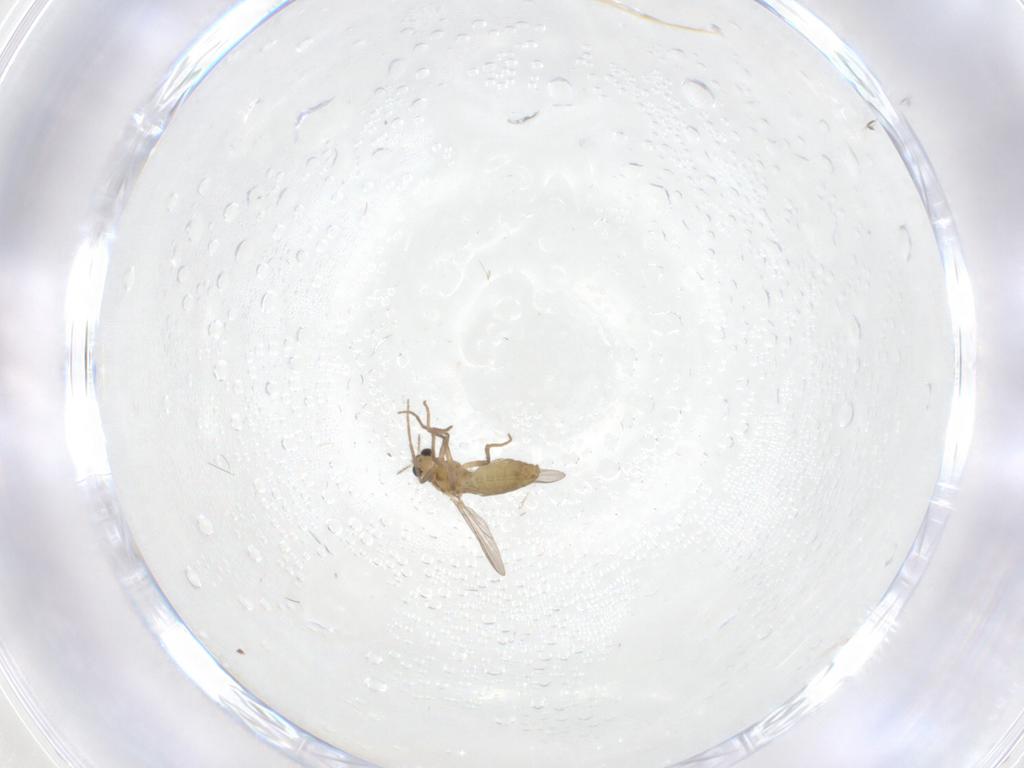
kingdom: Animalia
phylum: Arthropoda
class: Insecta
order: Diptera
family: Chironomidae
